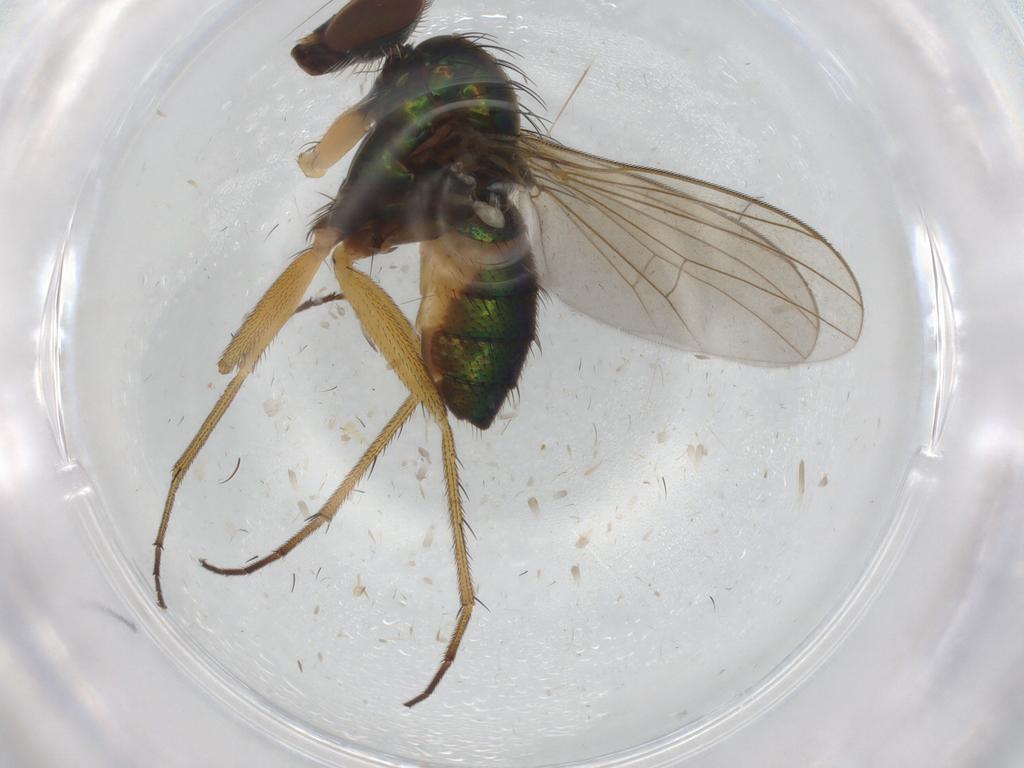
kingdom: Animalia
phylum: Arthropoda
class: Insecta
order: Diptera
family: Cecidomyiidae
